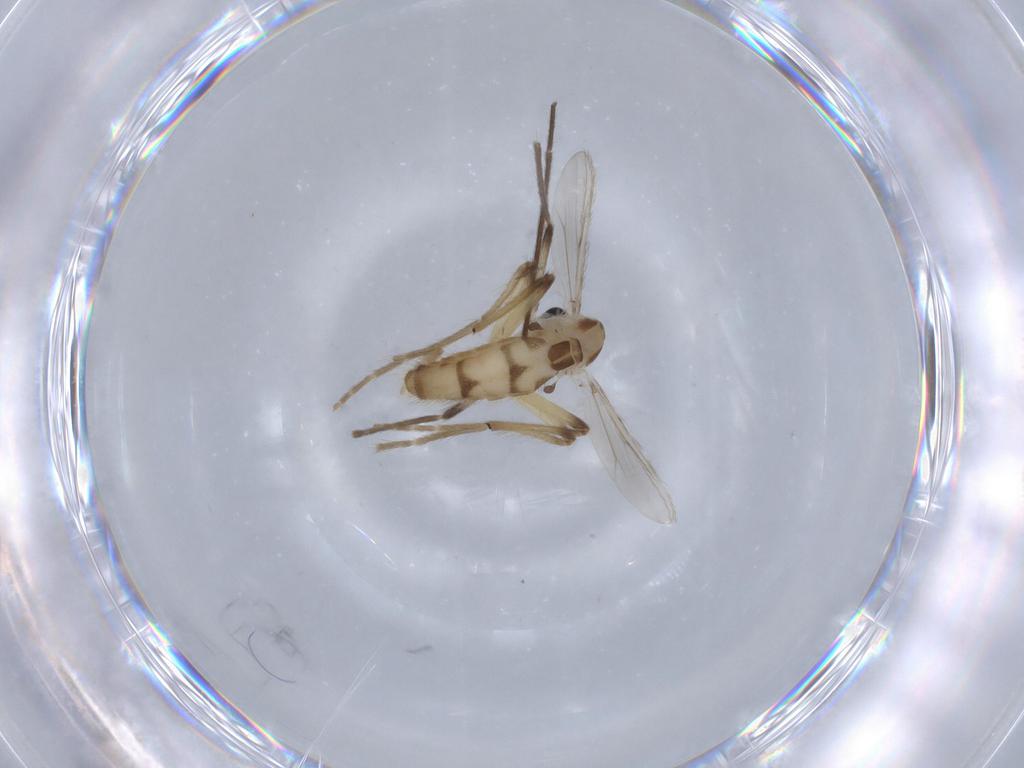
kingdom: Animalia
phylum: Arthropoda
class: Insecta
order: Diptera
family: Chironomidae
